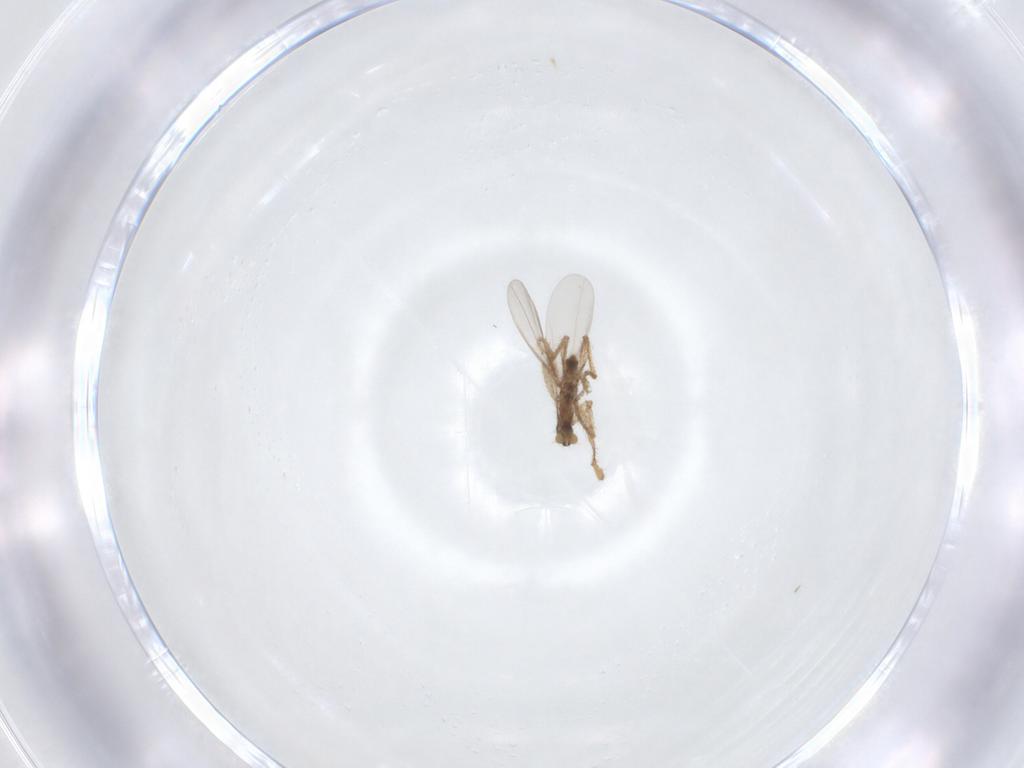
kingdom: Animalia
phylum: Arthropoda
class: Insecta
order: Diptera
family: Phoridae
